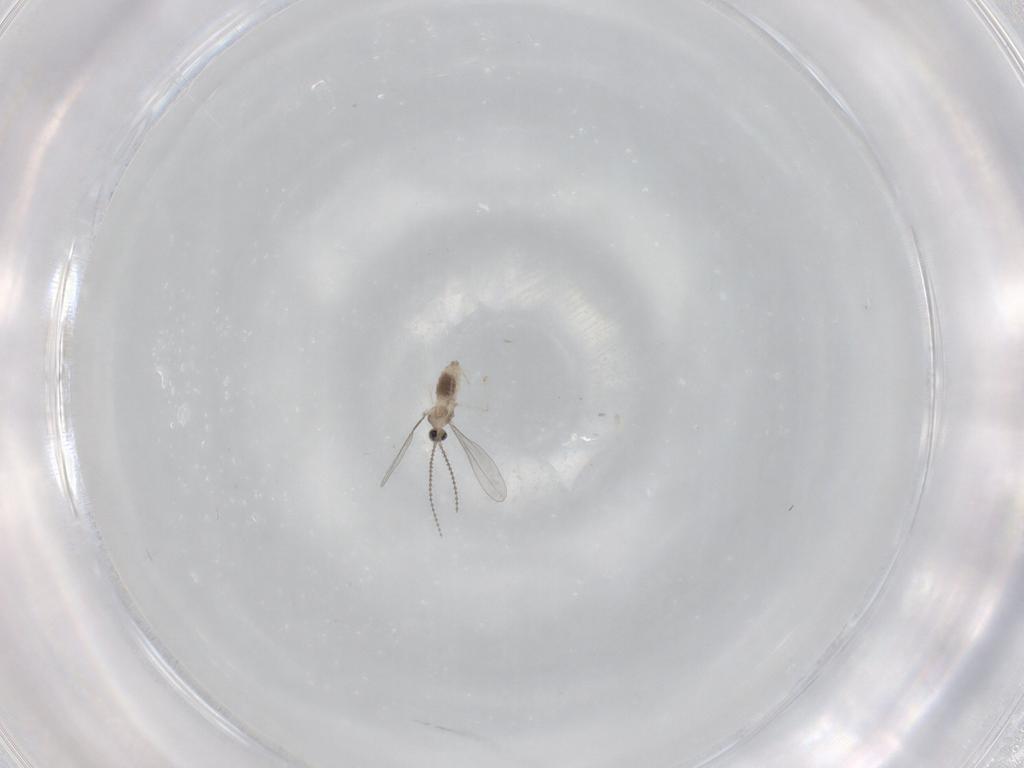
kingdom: Animalia
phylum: Arthropoda
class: Insecta
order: Diptera
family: Cecidomyiidae
